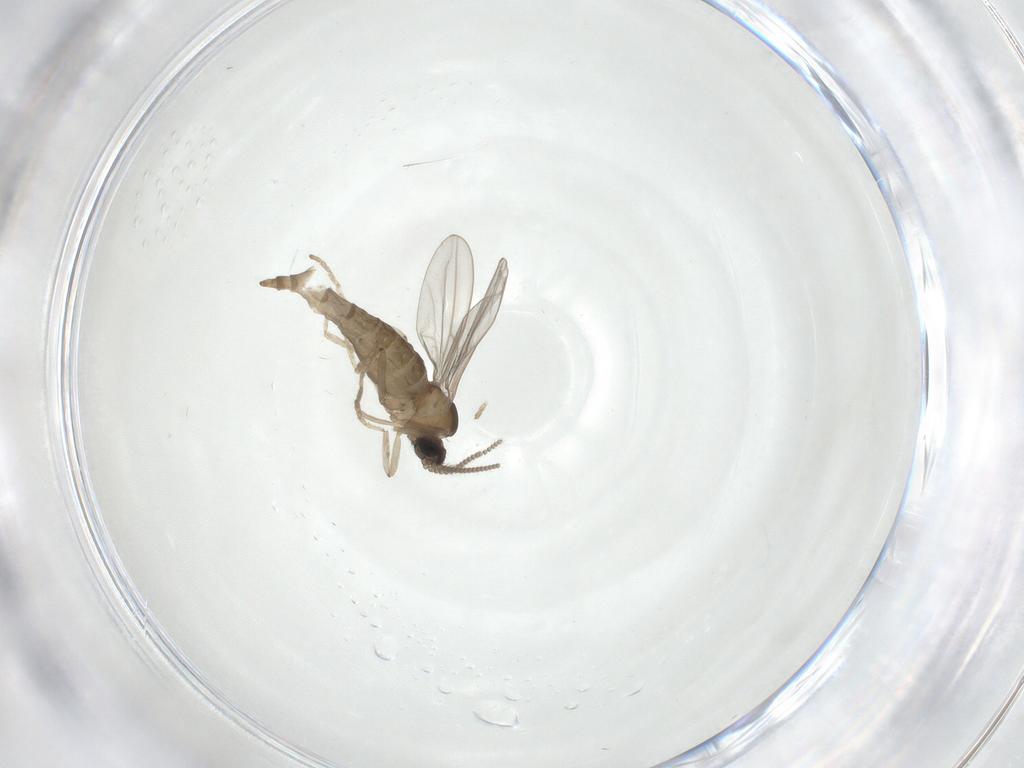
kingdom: Animalia
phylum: Arthropoda
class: Insecta
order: Diptera
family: Cecidomyiidae
